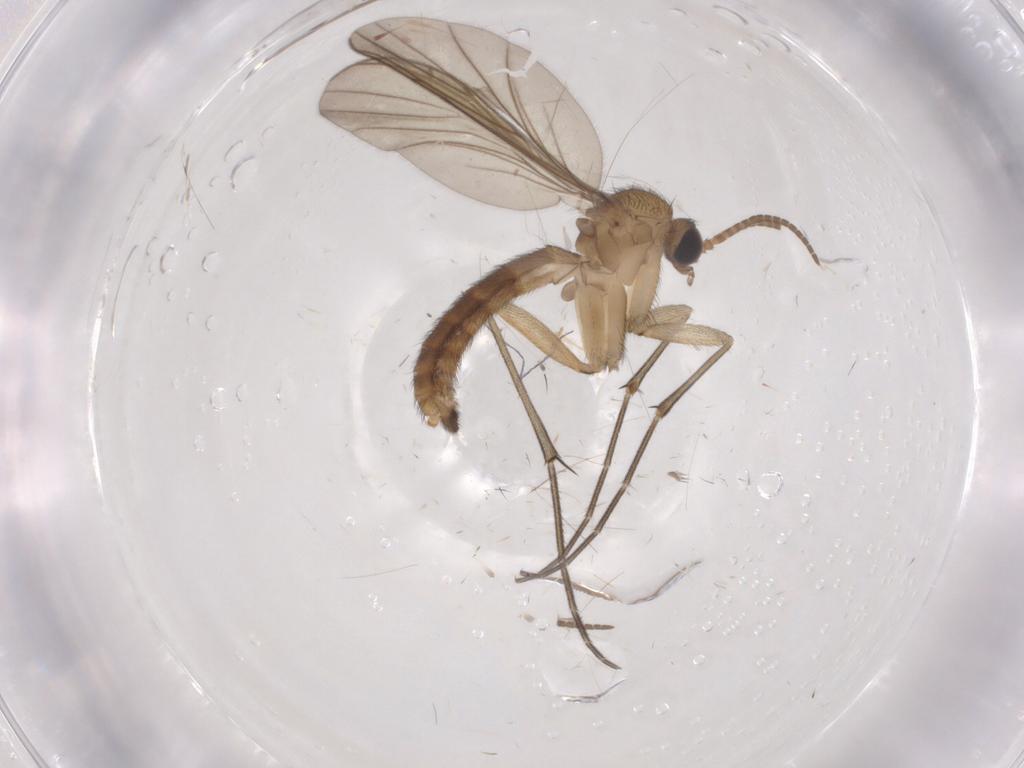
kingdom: Animalia
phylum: Arthropoda
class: Insecta
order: Diptera
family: Keroplatidae
